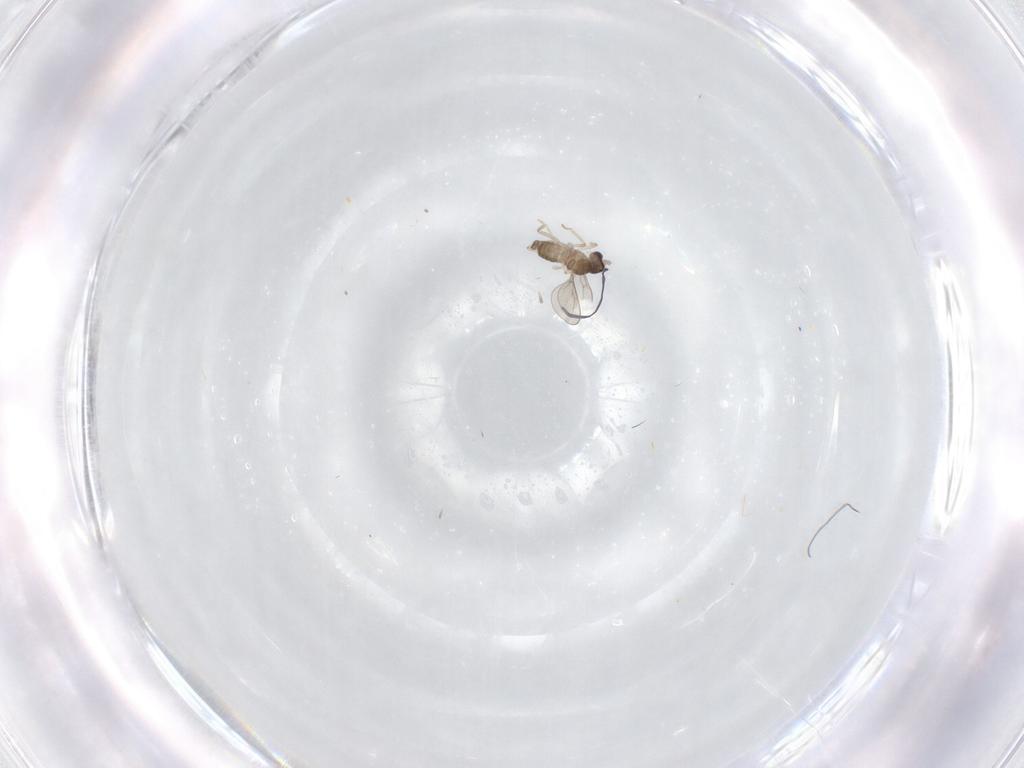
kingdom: Animalia
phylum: Arthropoda
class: Insecta
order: Diptera
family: Cecidomyiidae
